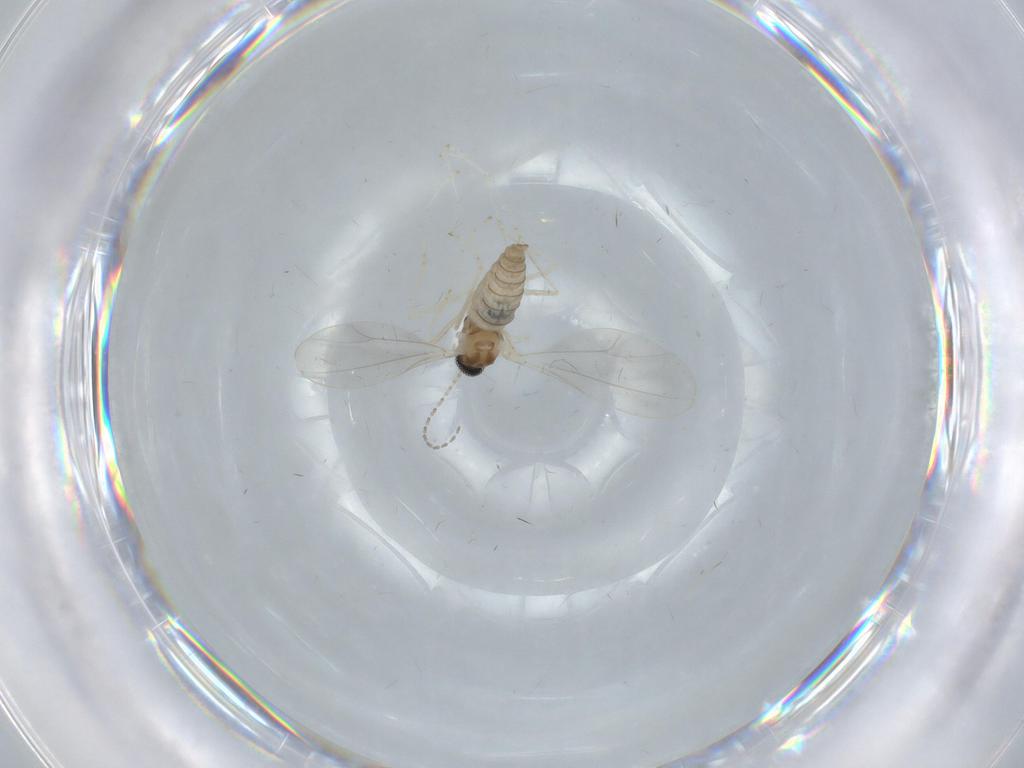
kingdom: Animalia
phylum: Arthropoda
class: Insecta
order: Diptera
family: Cecidomyiidae
